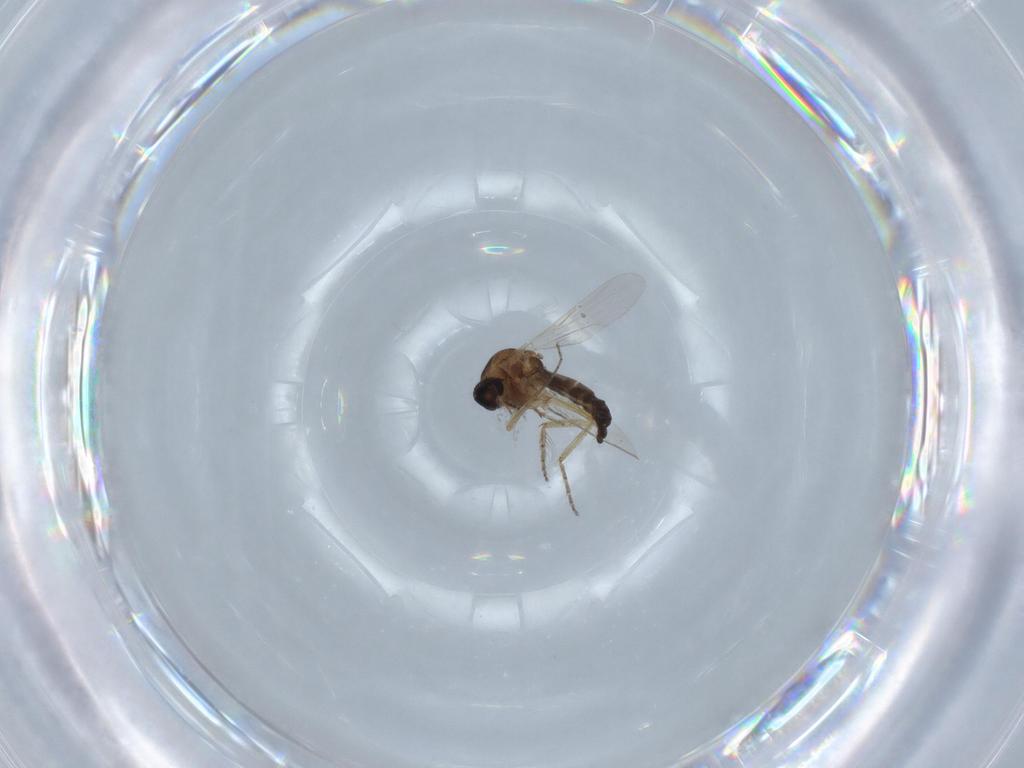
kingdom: Animalia
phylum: Arthropoda
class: Insecta
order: Diptera
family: Ceratopogonidae
